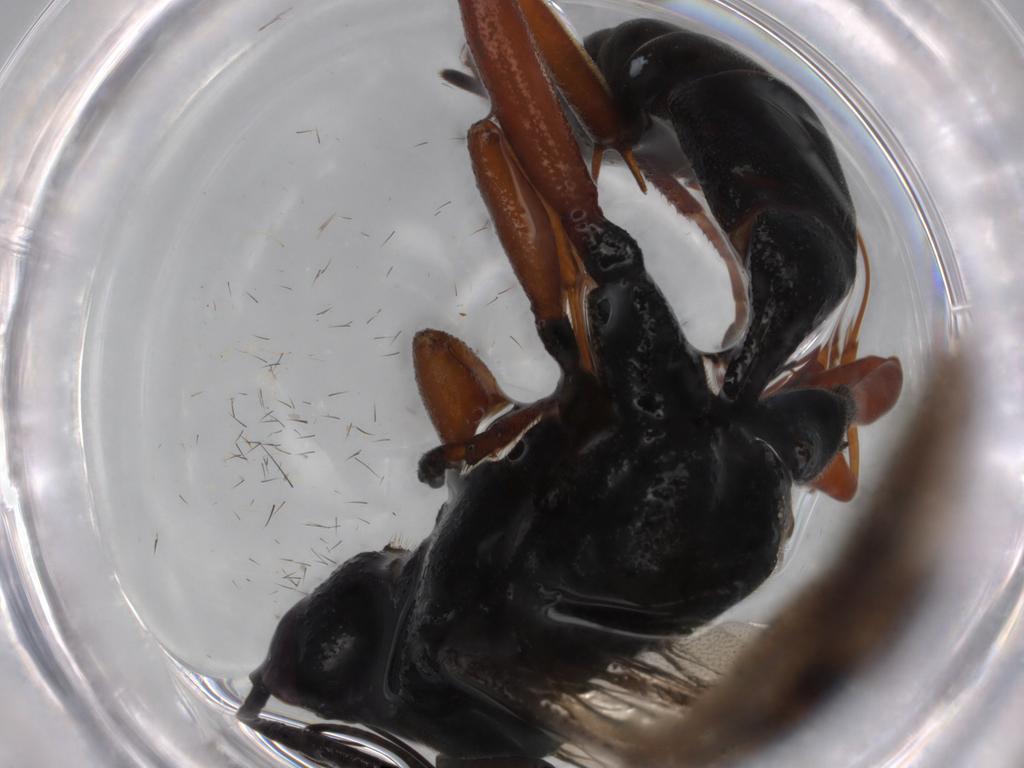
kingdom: Animalia
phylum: Arthropoda
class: Insecta
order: Hymenoptera
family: Ichneumonidae
